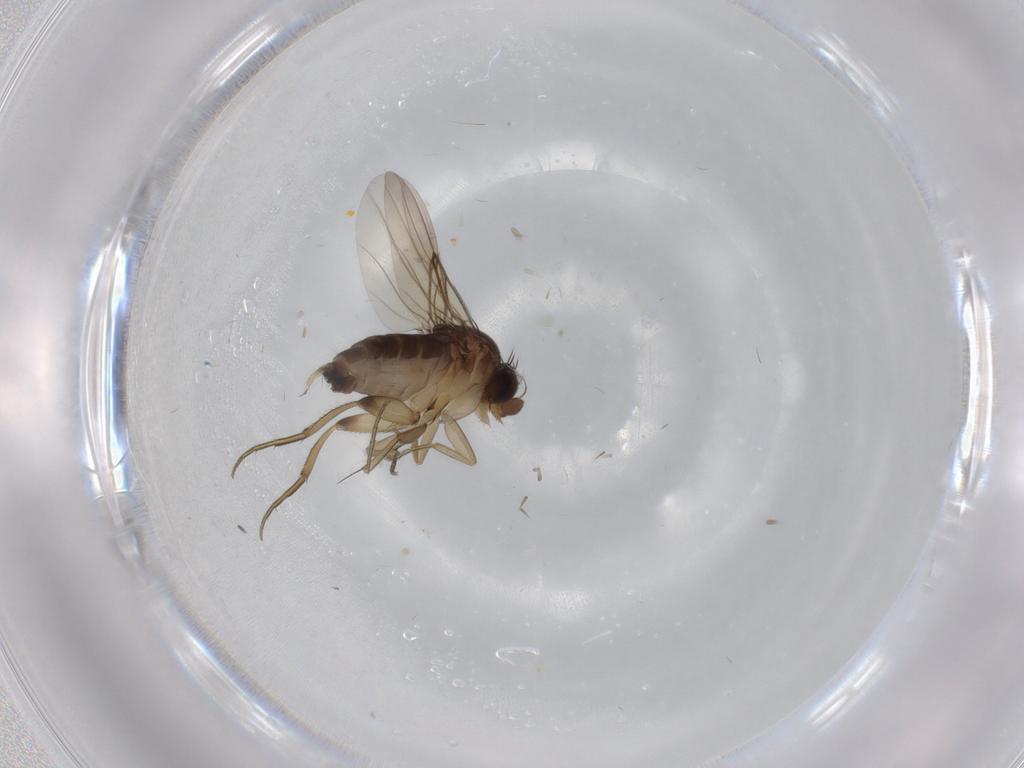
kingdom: Animalia
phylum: Arthropoda
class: Insecta
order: Diptera
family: Phoridae
